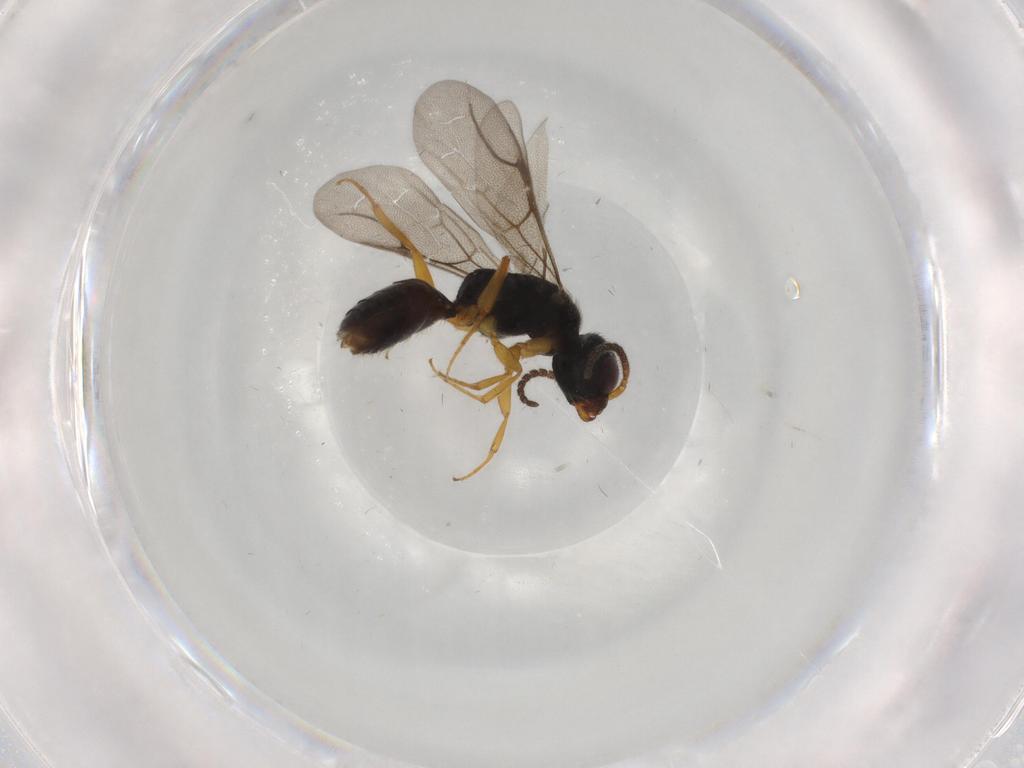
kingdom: Animalia
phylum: Arthropoda
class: Insecta
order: Hymenoptera
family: Bethylidae
